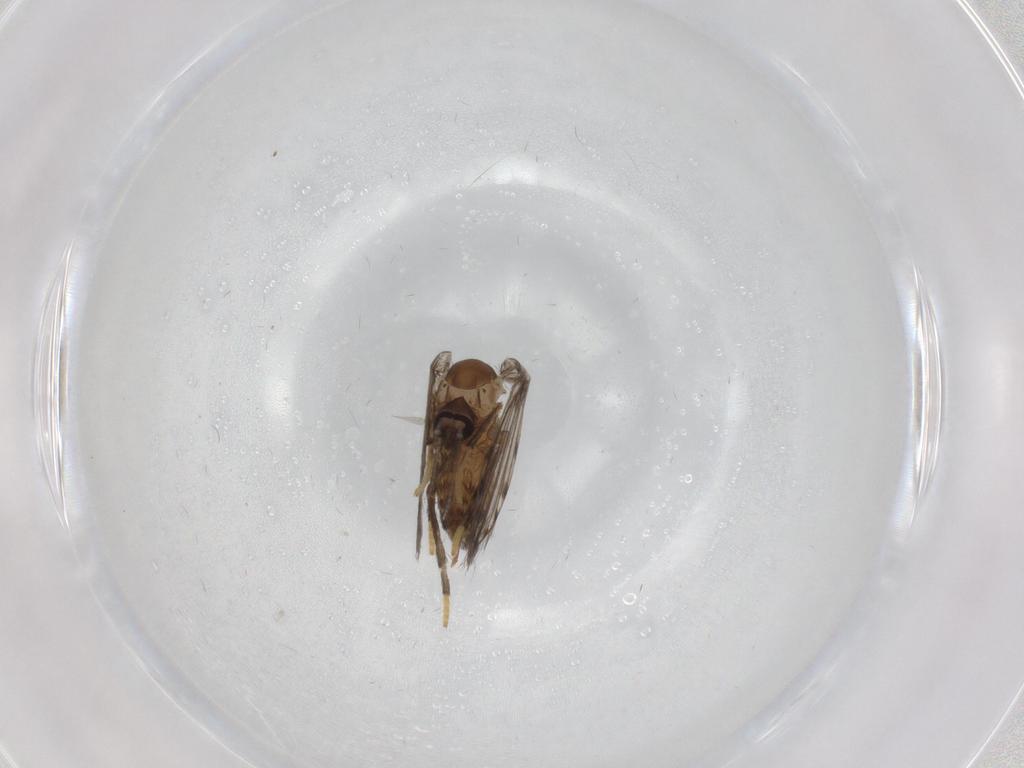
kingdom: Animalia
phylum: Arthropoda
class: Insecta
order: Diptera
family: Psychodidae
